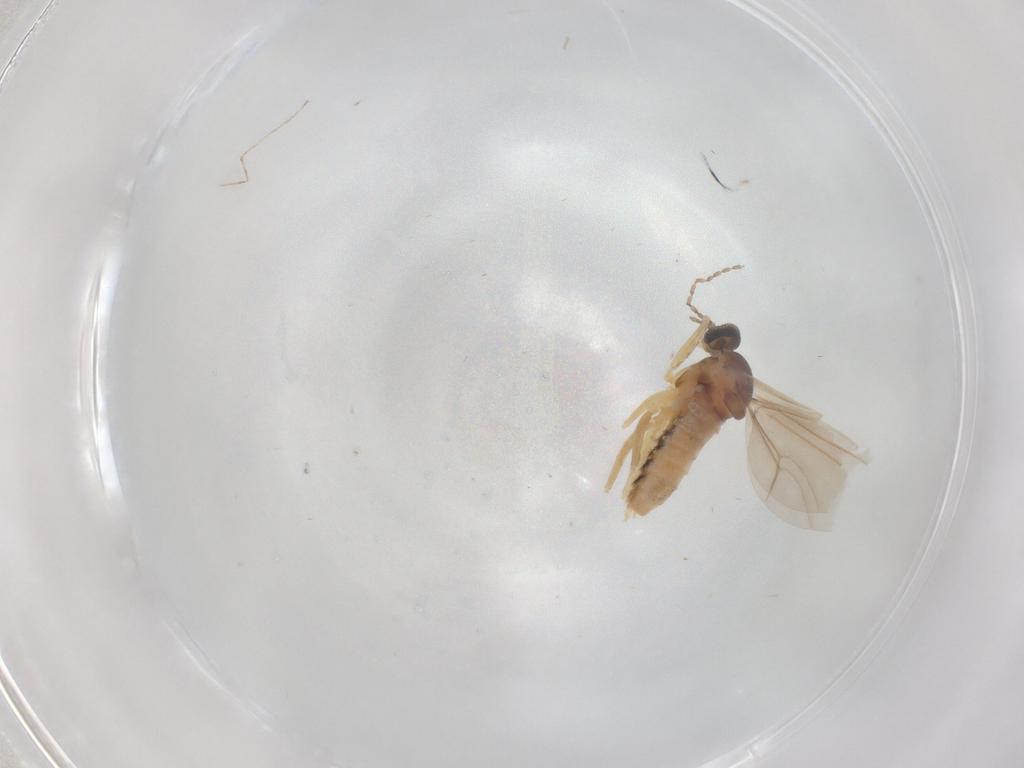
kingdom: Animalia
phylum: Arthropoda
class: Insecta
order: Diptera
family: Cecidomyiidae
